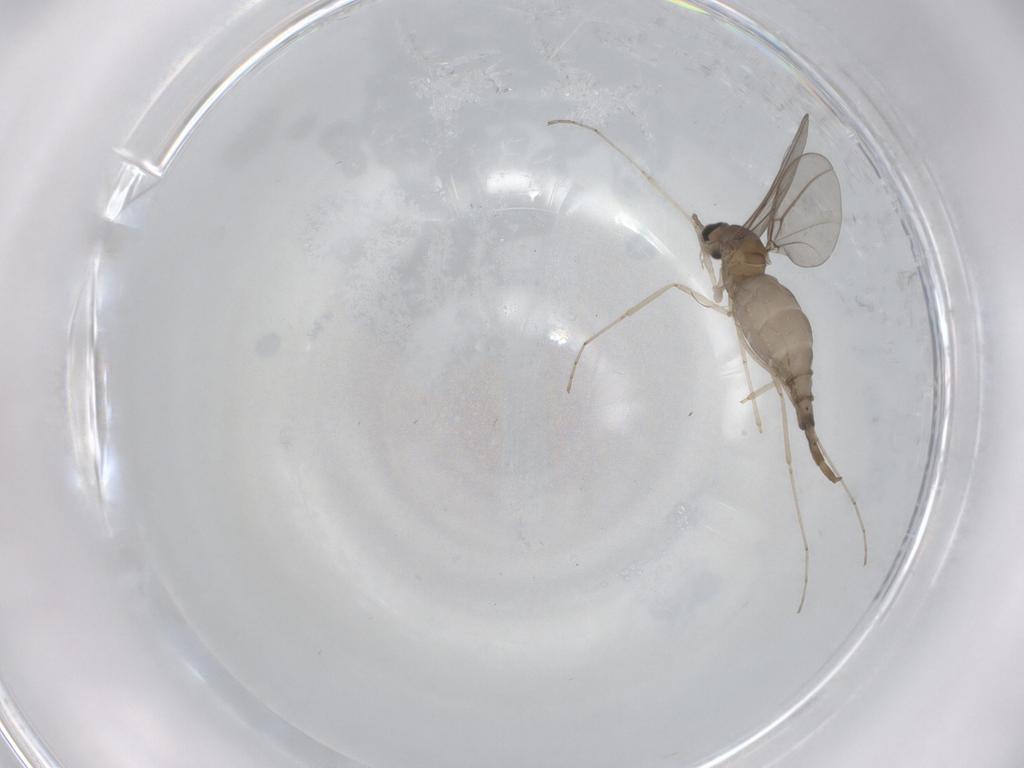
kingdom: Animalia
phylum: Arthropoda
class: Insecta
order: Diptera
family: Cecidomyiidae
